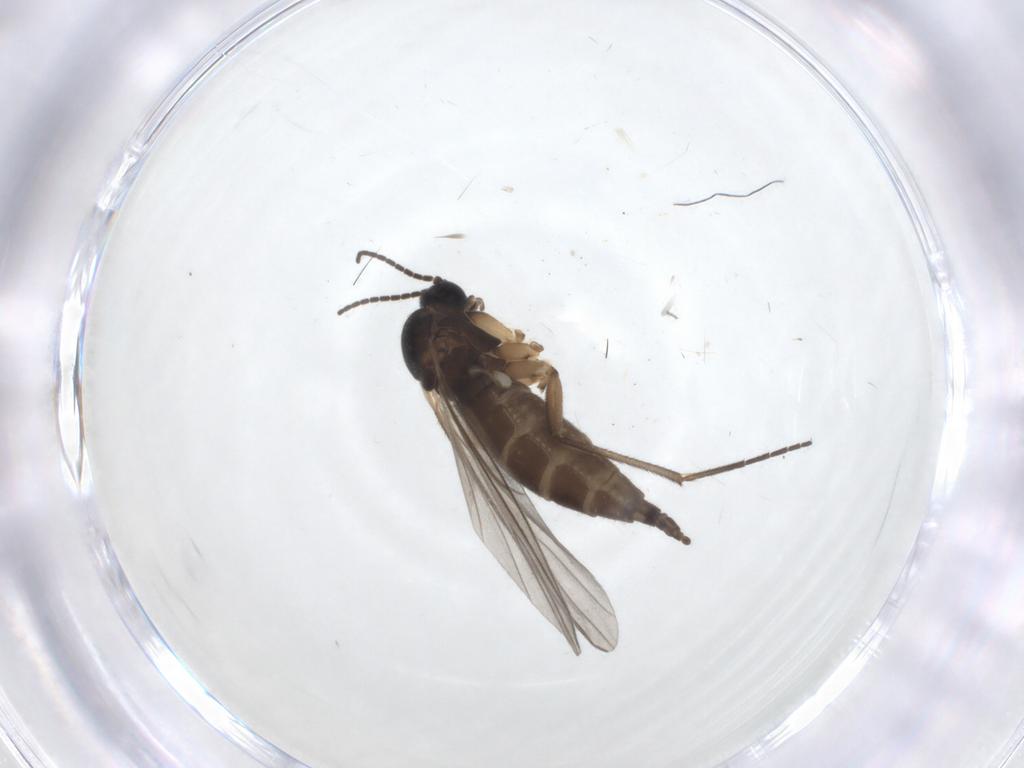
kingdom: Animalia
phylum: Arthropoda
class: Insecta
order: Diptera
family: Sciaridae
